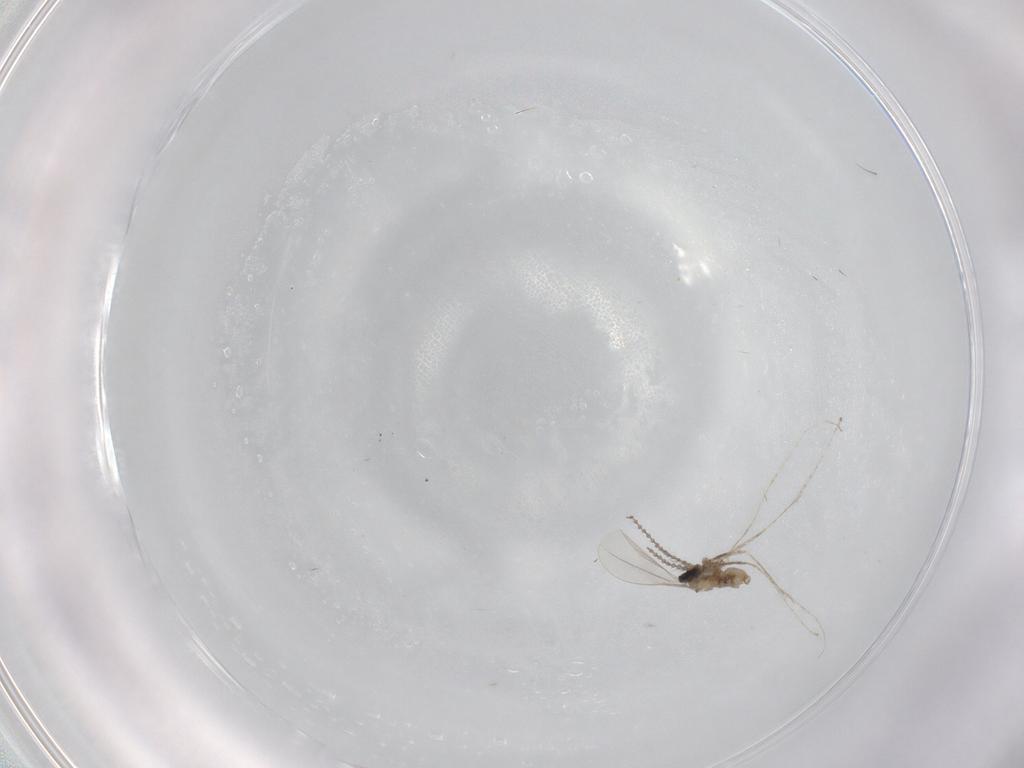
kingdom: Animalia
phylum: Arthropoda
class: Insecta
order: Diptera
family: Cecidomyiidae
